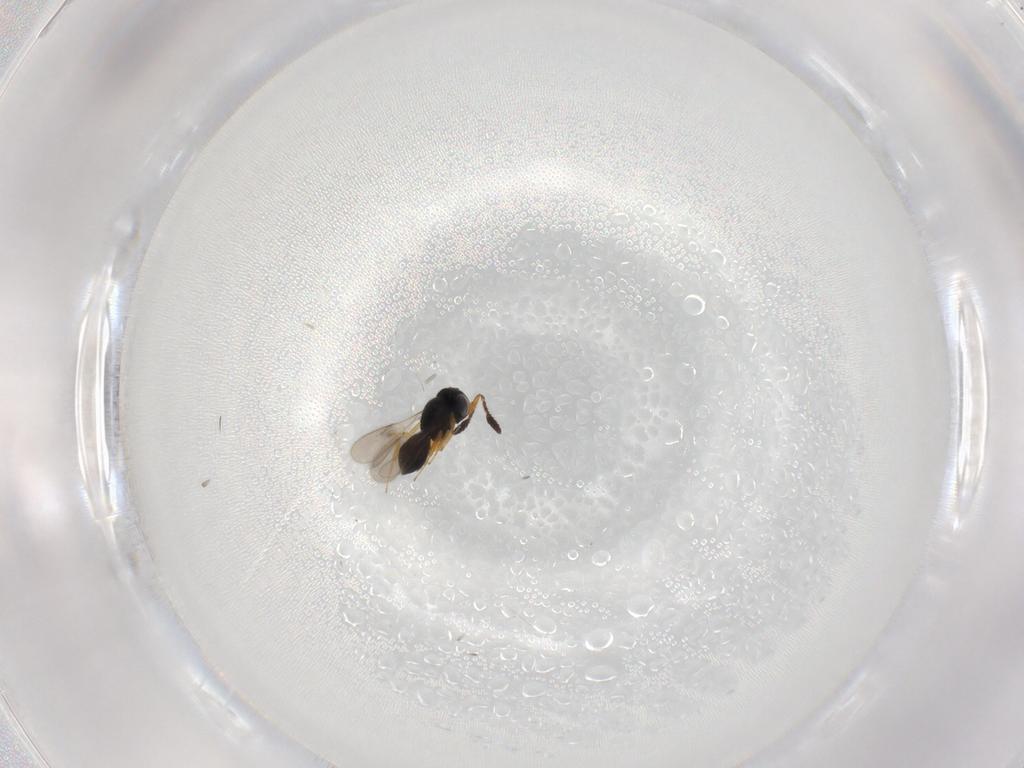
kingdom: Animalia
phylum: Arthropoda
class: Insecta
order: Hymenoptera
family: Scelionidae
